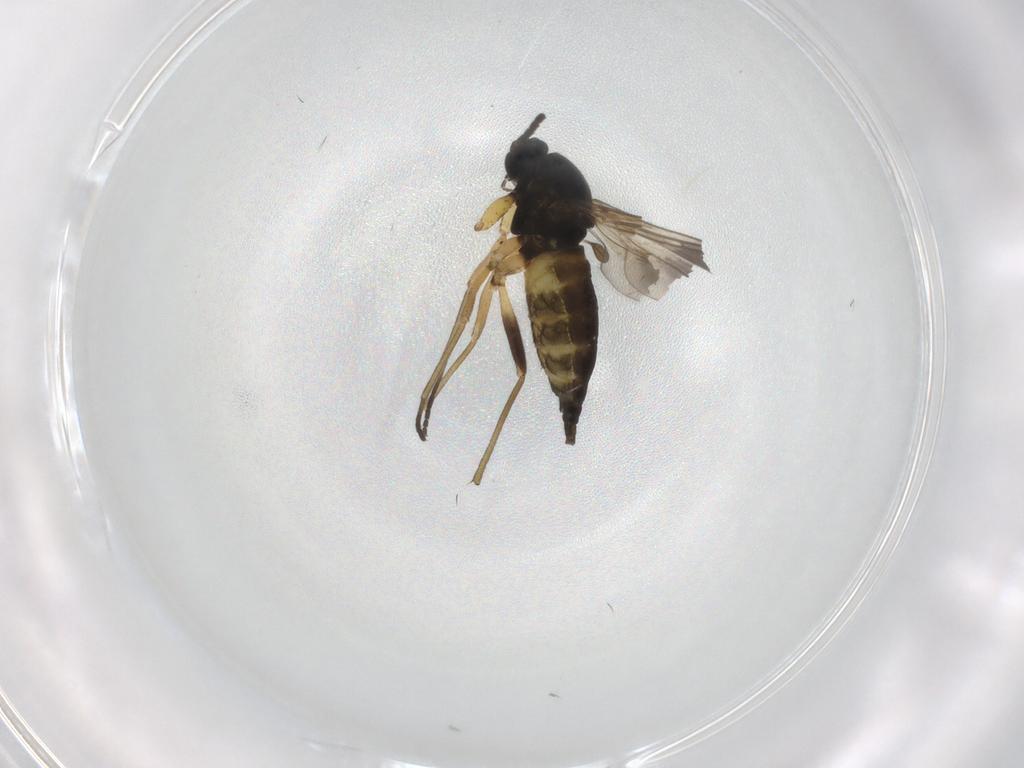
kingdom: Animalia
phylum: Arthropoda
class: Insecta
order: Diptera
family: Sciaridae
